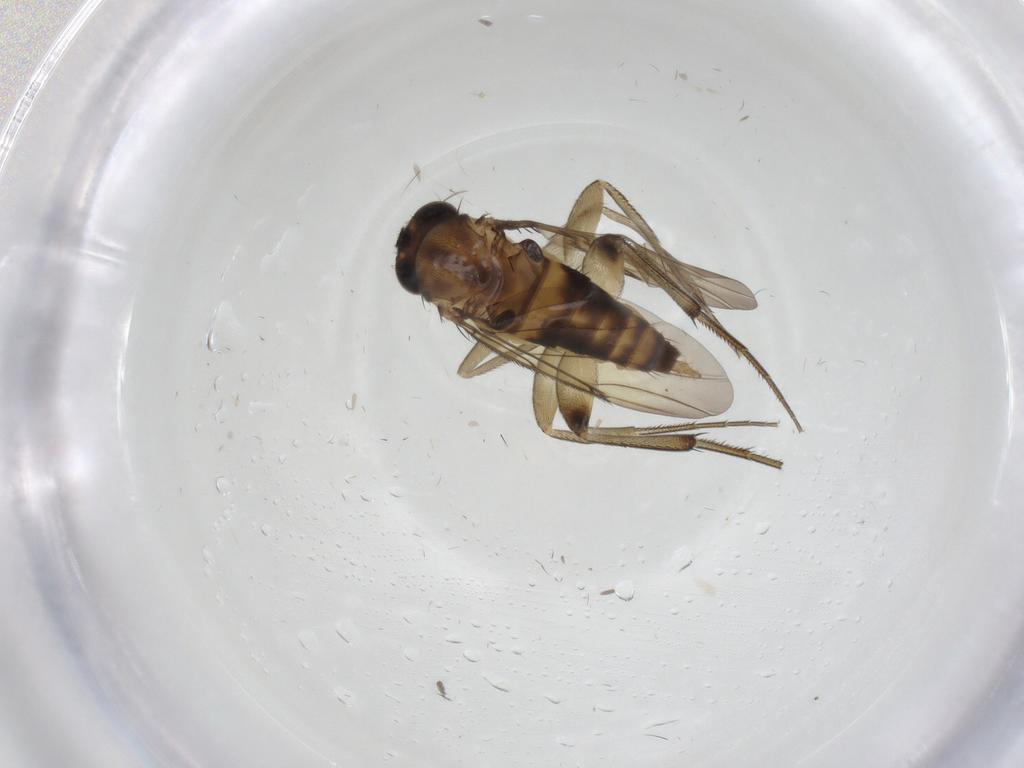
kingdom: Animalia
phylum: Arthropoda
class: Insecta
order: Diptera
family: Phoridae
